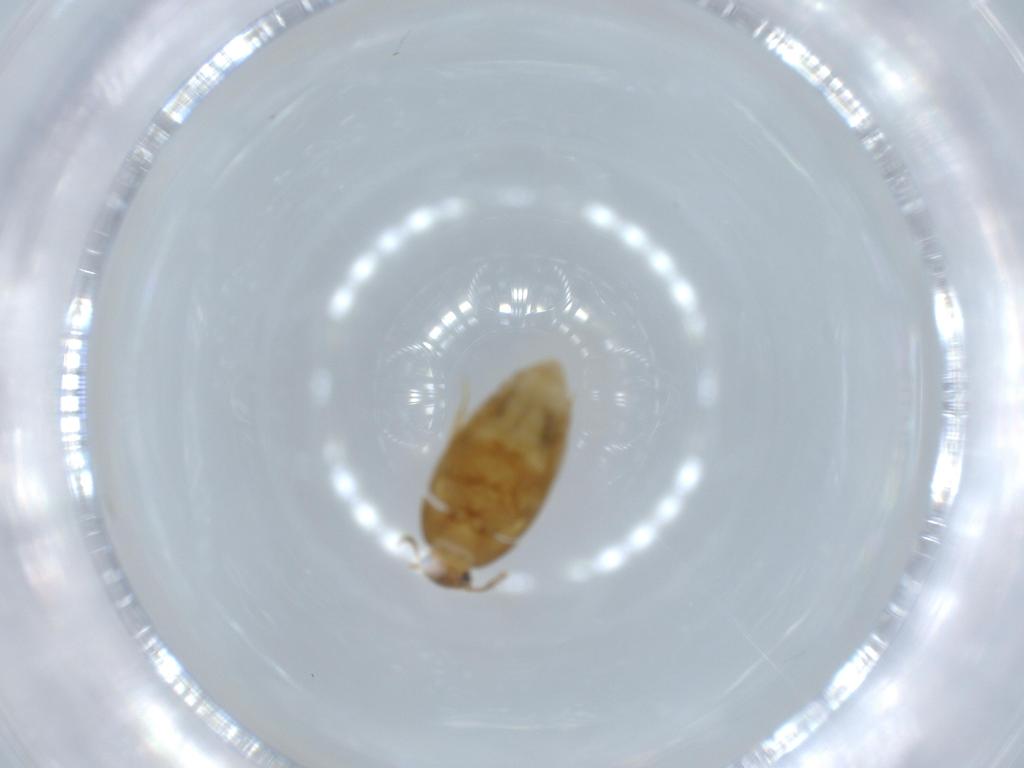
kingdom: Animalia
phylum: Arthropoda
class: Insecta
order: Coleoptera
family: Mycetophagidae
